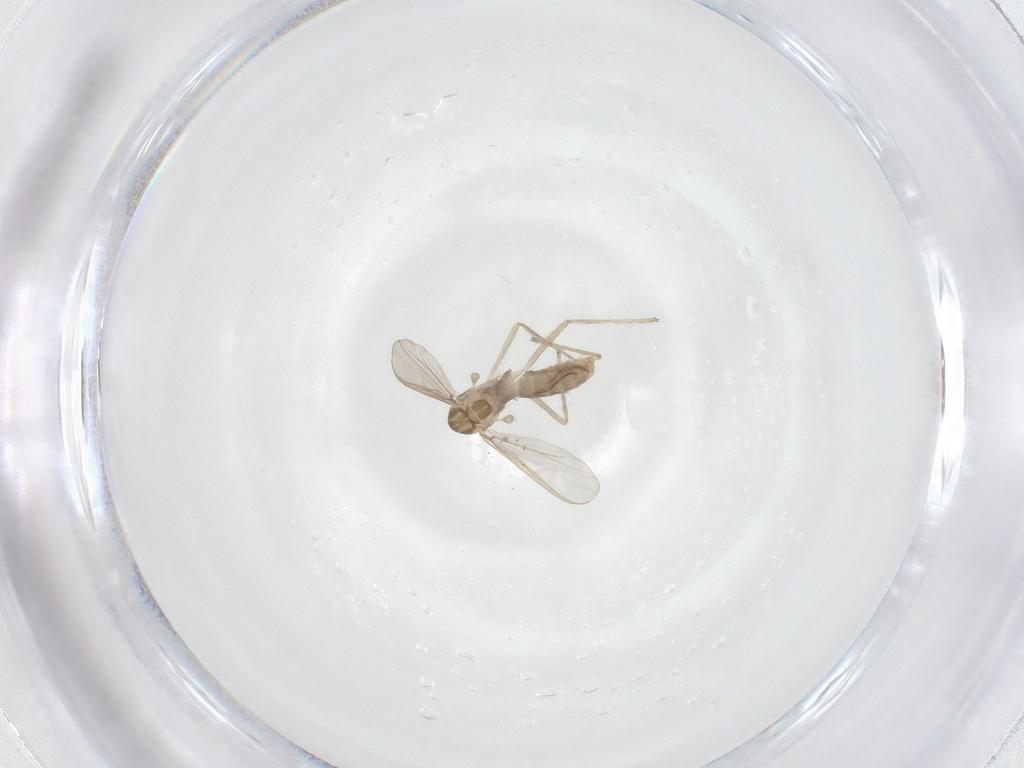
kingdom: Animalia
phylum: Arthropoda
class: Insecta
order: Diptera
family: Chironomidae
